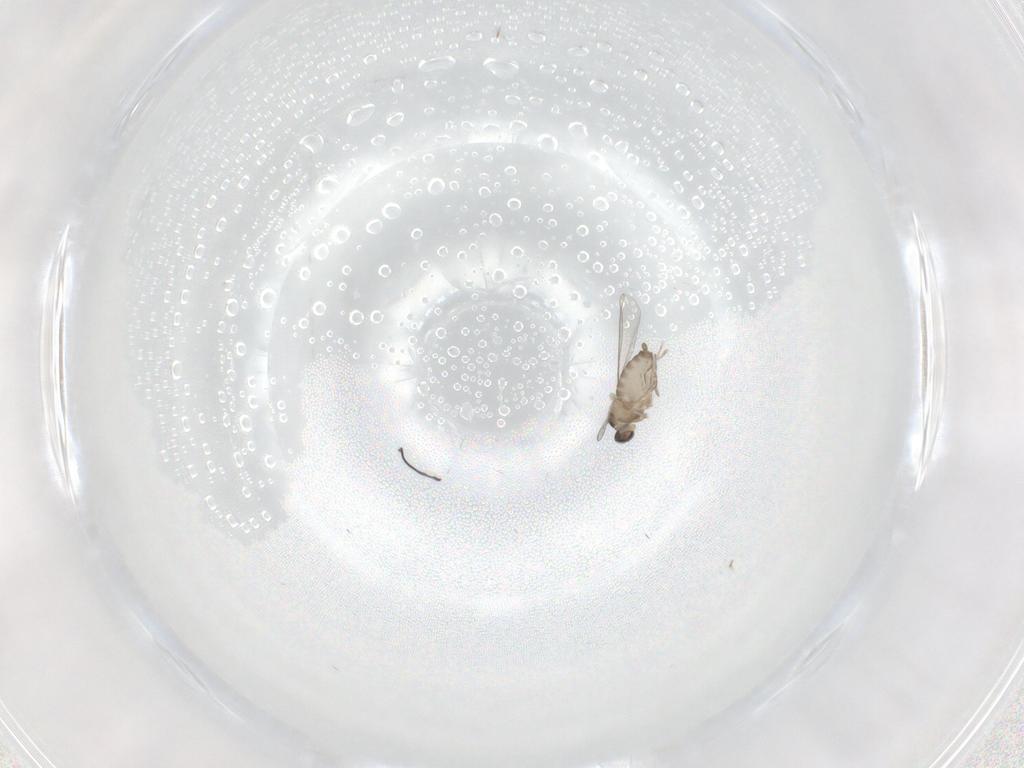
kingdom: Animalia
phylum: Arthropoda
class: Insecta
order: Diptera
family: Cecidomyiidae
